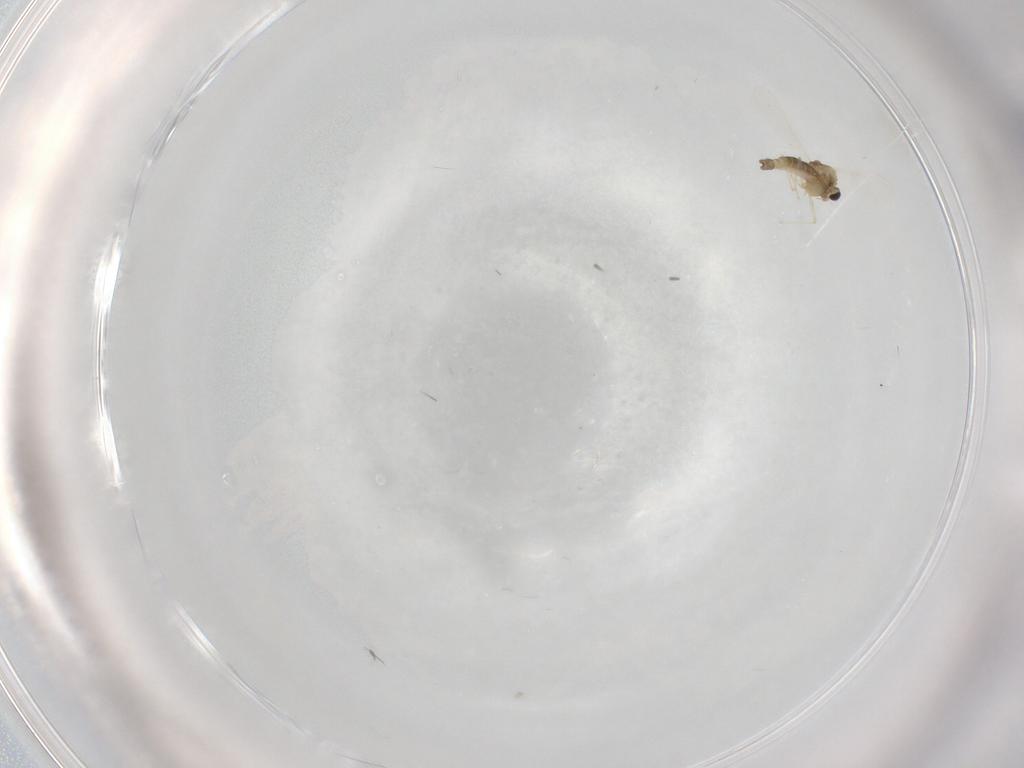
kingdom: Animalia
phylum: Arthropoda
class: Insecta
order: Diptera
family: Chironomidae
